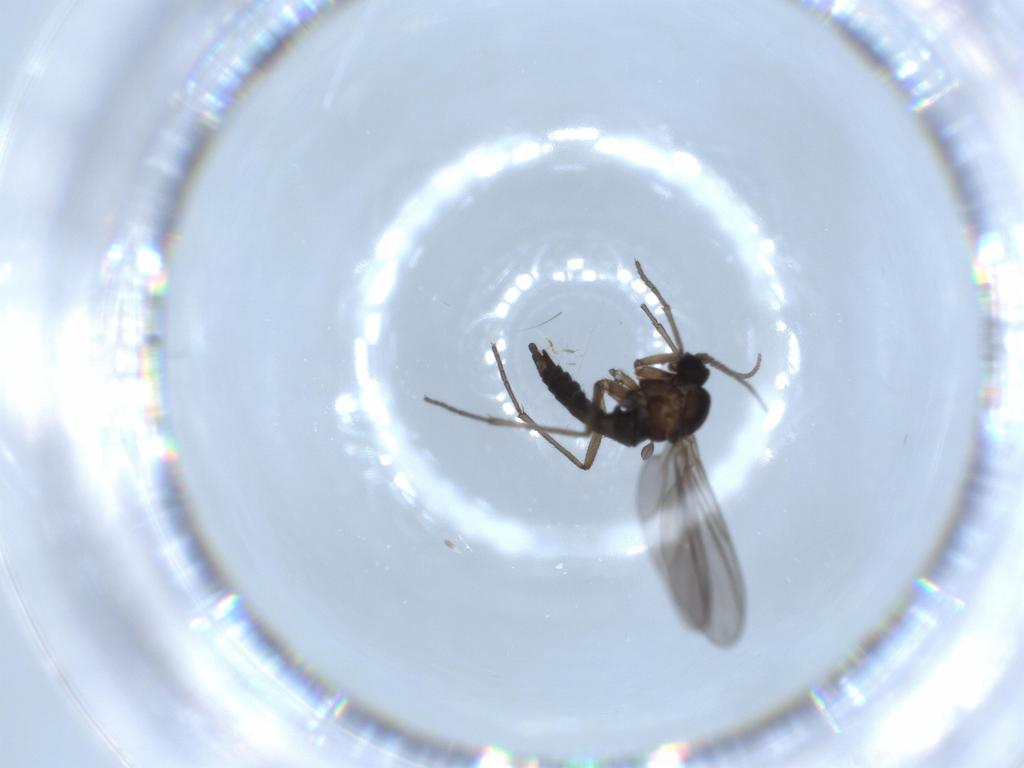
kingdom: Animalia
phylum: Arthropoda
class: Insecta
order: Diptera
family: Sciaridae
